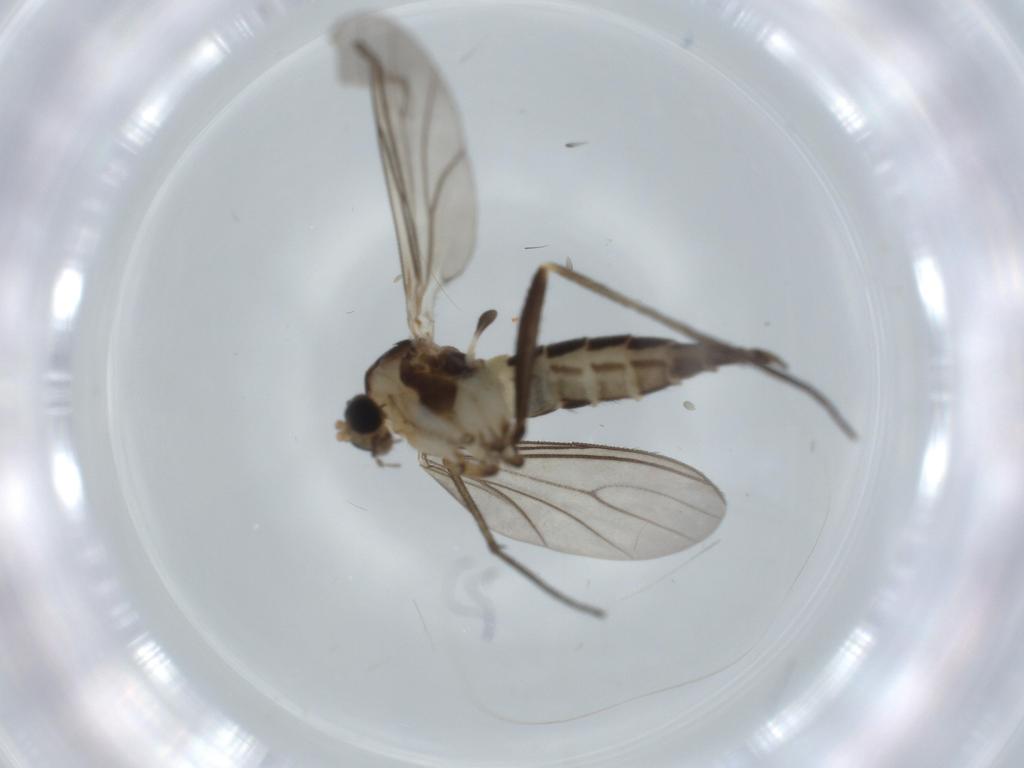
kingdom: Animalia
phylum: Arthropoda
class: Insecta
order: Diptera
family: Sciaridae
